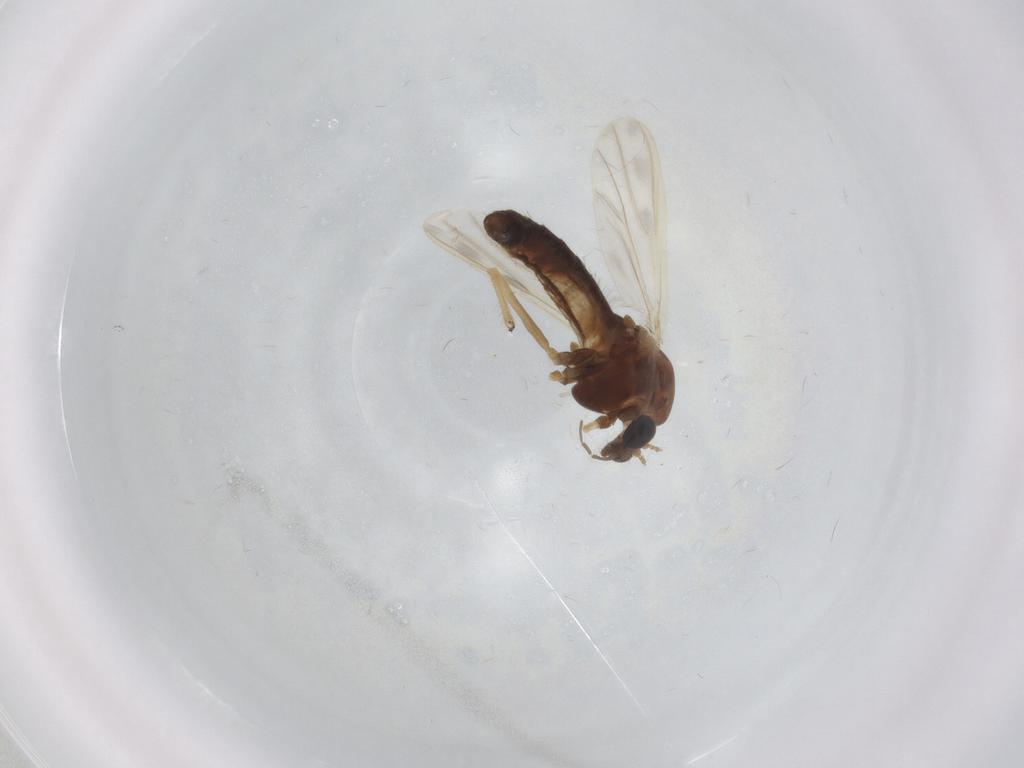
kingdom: Animalia
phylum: Arthropoda
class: Insecta
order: Diptera
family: Chironomidae
